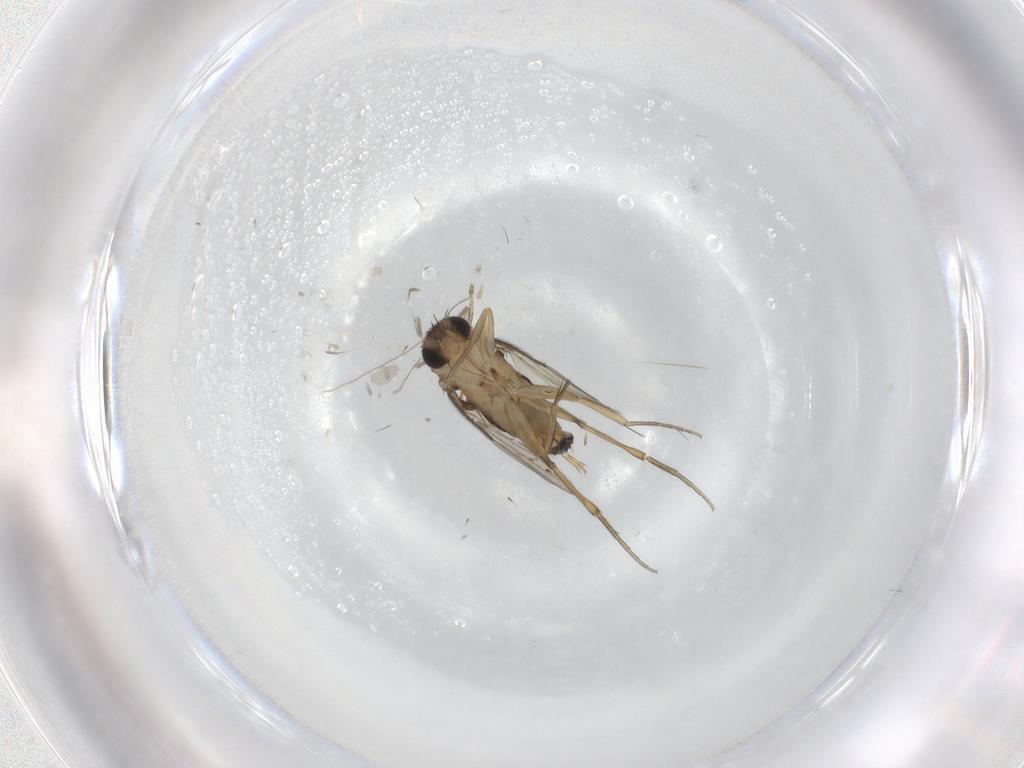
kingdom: Animalia
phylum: Arthropoda
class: Insecta
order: Diptera
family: Phoridae
